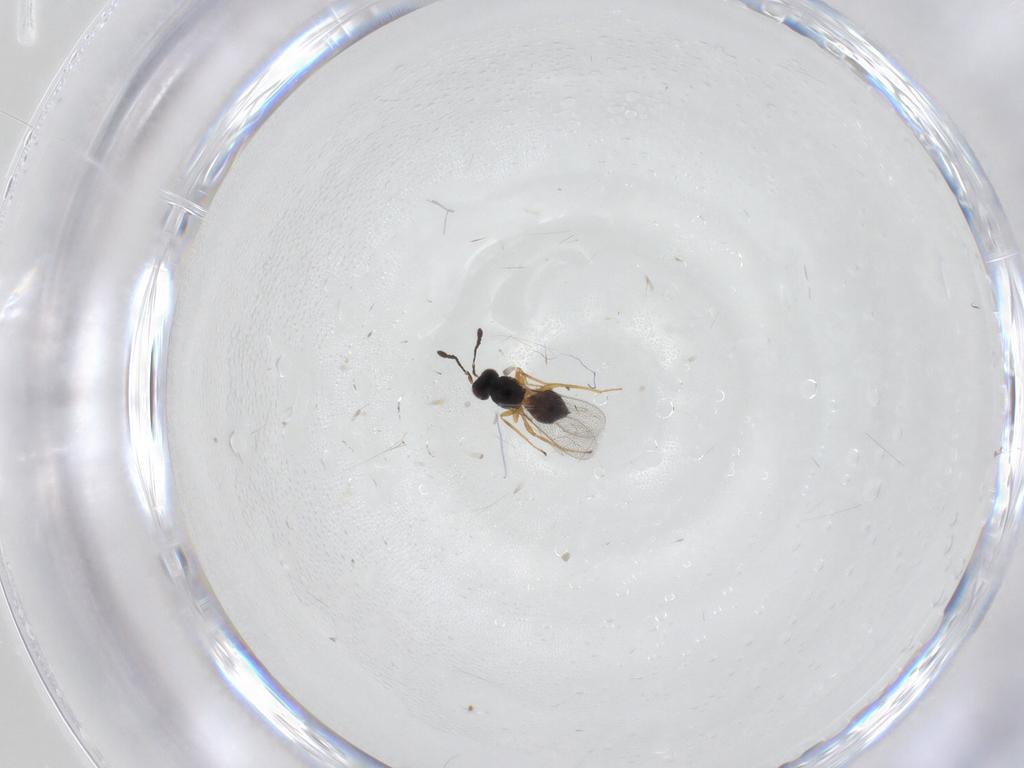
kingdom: Animalia
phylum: Arthropoda
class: Insecta
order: Hymenoptera
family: Mymaridae
